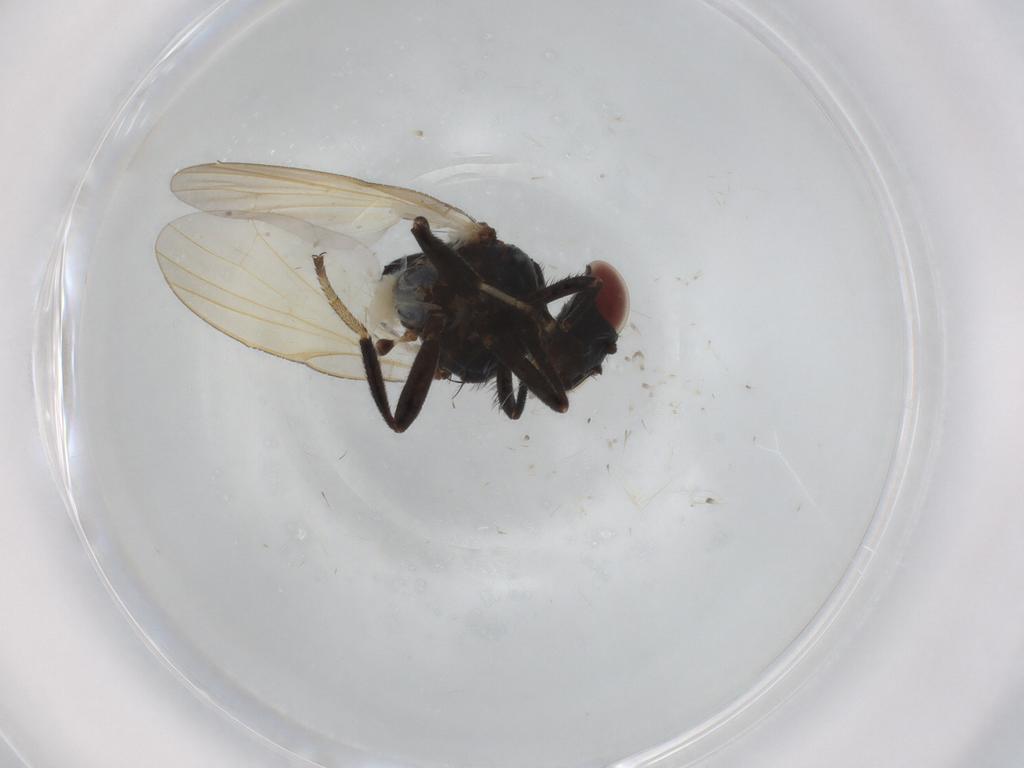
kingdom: Animalia
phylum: Arthropoda
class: Insecta
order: Diptera
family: Lonchaeidae
